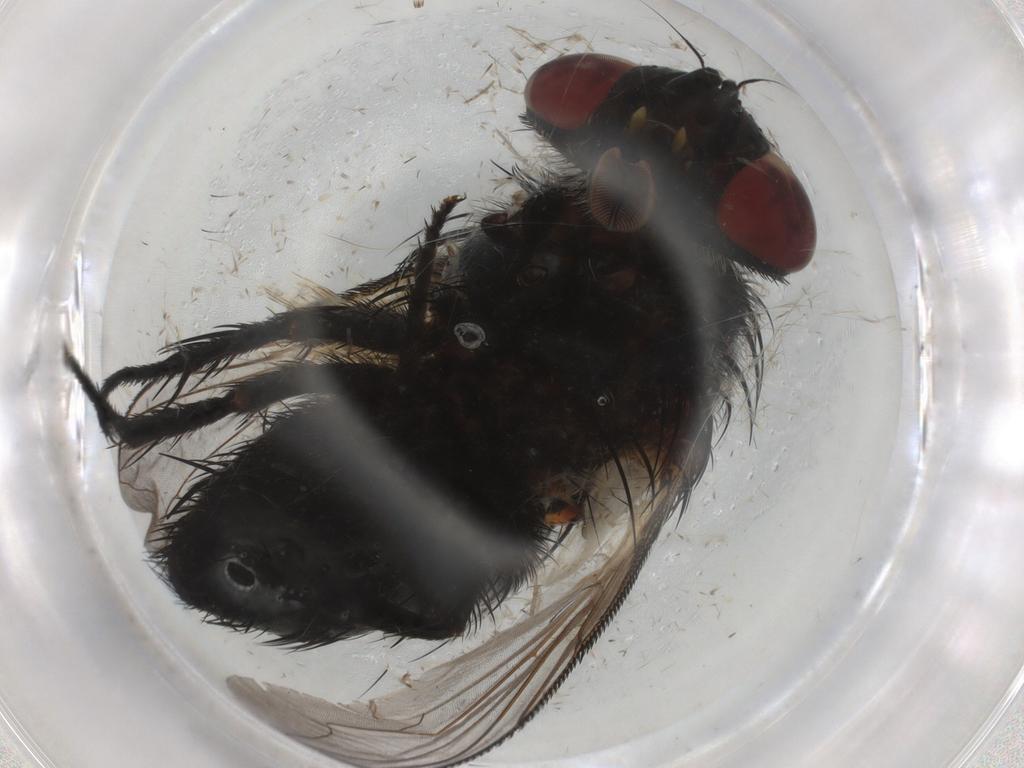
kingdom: Animalia
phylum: Arthropoda
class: Insecta
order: Diptera
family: Tachinidae
